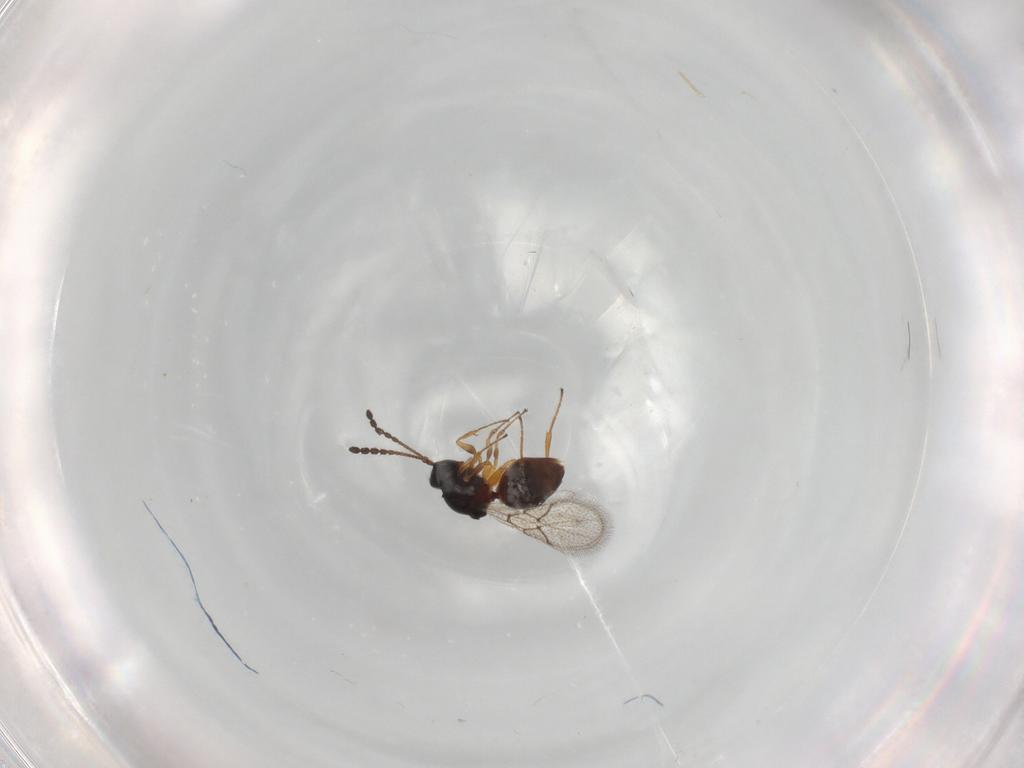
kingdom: Animalia
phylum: Arthropoda
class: Insecta
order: Hymenoptera
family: Figitidae
